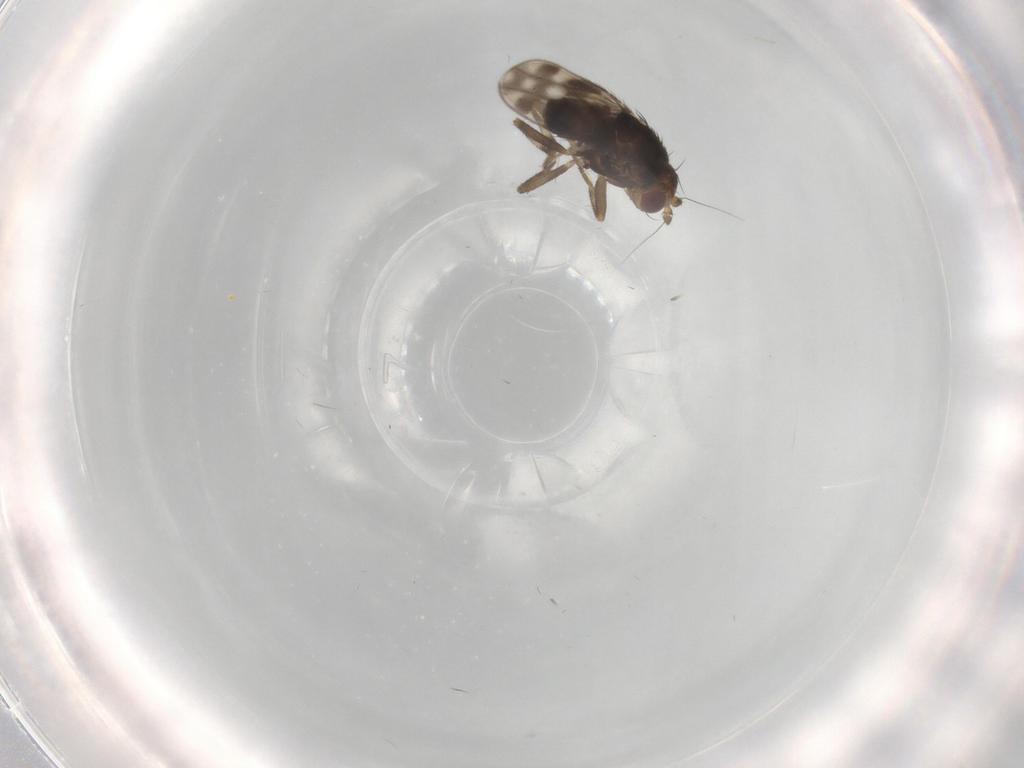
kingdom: Animalia
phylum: Arthropoda
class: Insecta
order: Diptera
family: Sphaeroceridae
